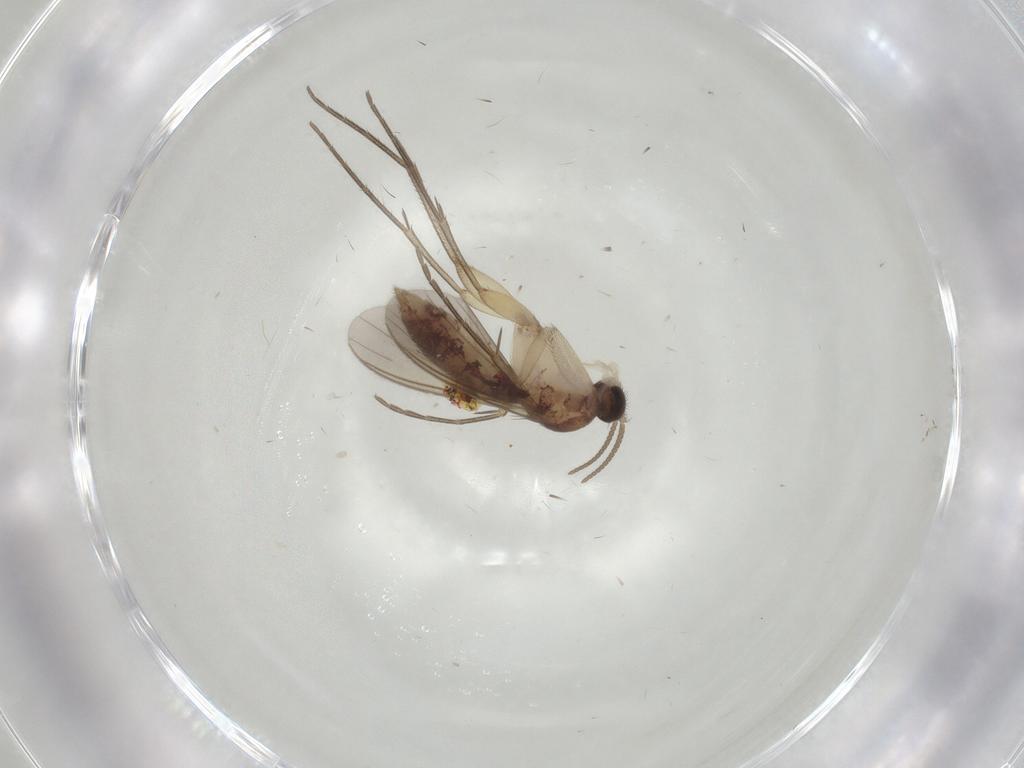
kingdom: Animalia
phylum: Arthropoda
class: Insecta
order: Diptera
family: Mycetophilidae
